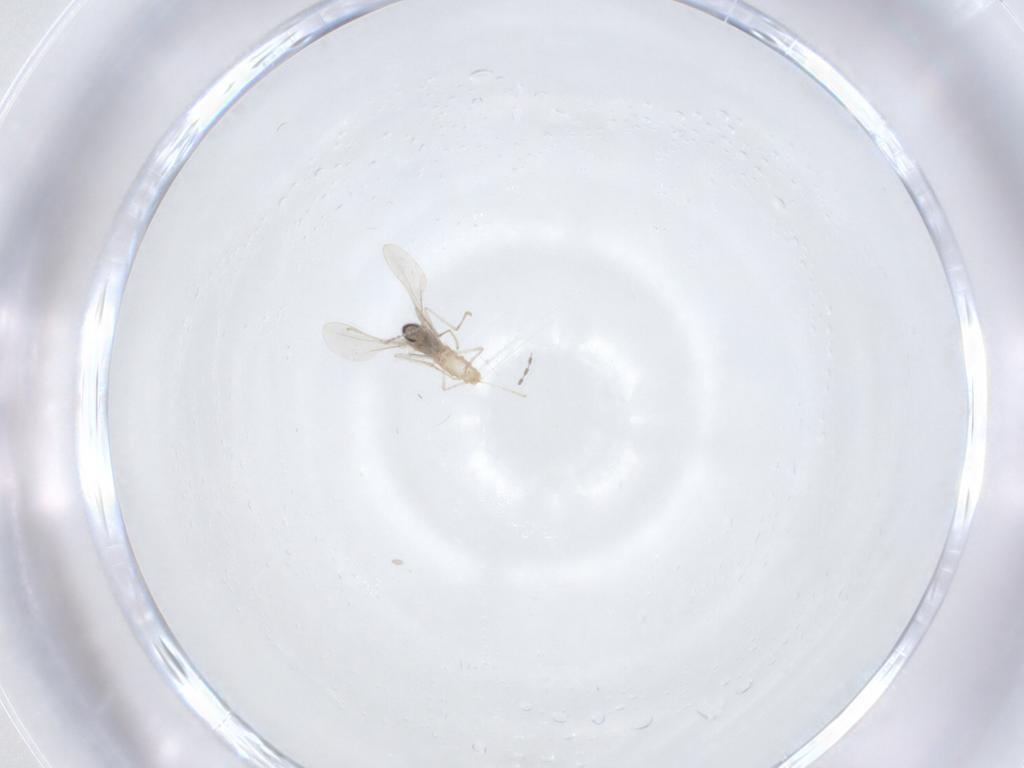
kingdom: Animalia
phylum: Arthropoda
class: Insecta
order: Diptera
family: Cecidomyiidae
